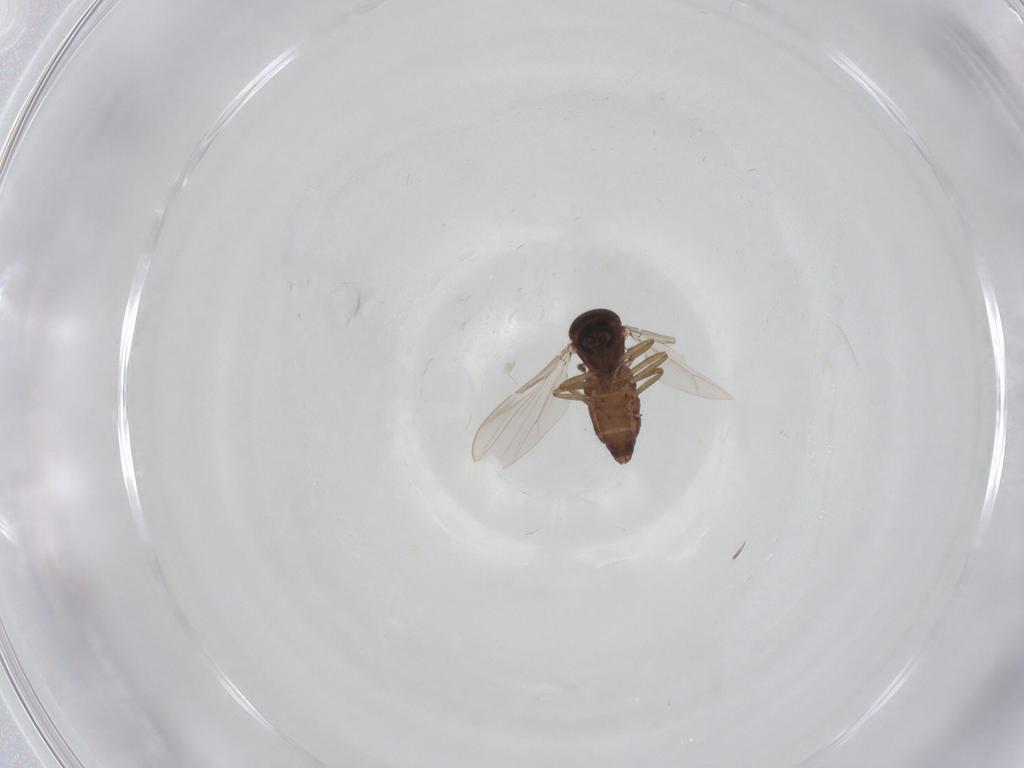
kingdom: Animalia
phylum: Arthropoda
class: Insecta
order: Diptera
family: Ceratopogonidae
